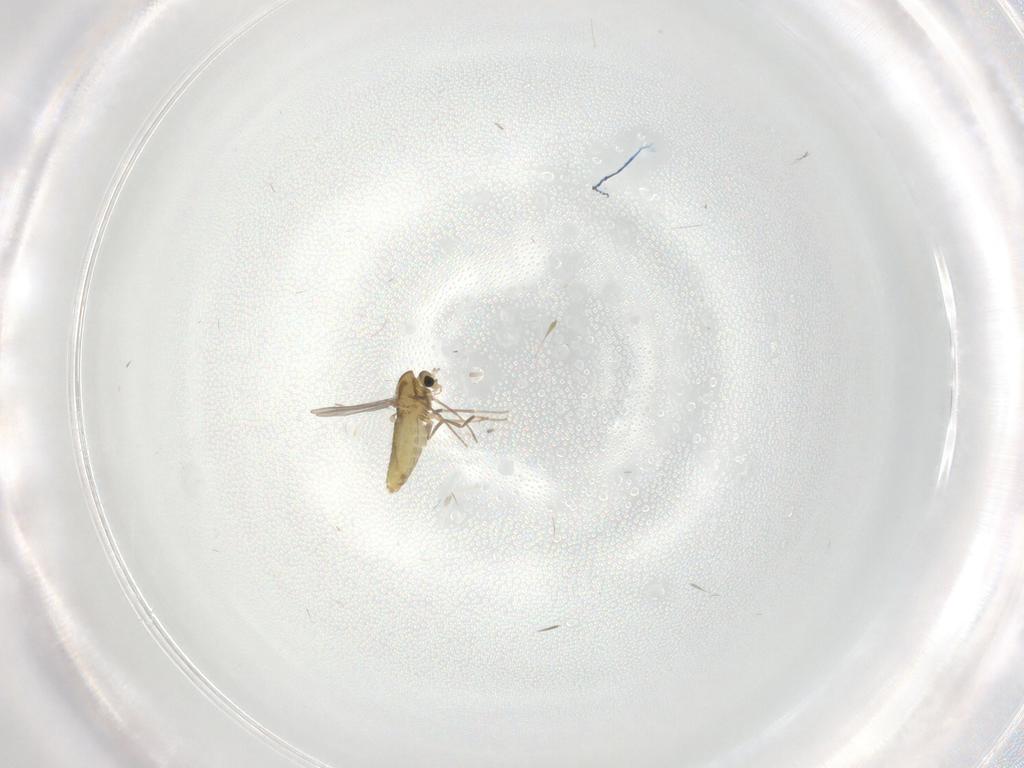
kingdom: Animalia
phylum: Arthropoda
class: Insecta
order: Diptera
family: Chironomidae
